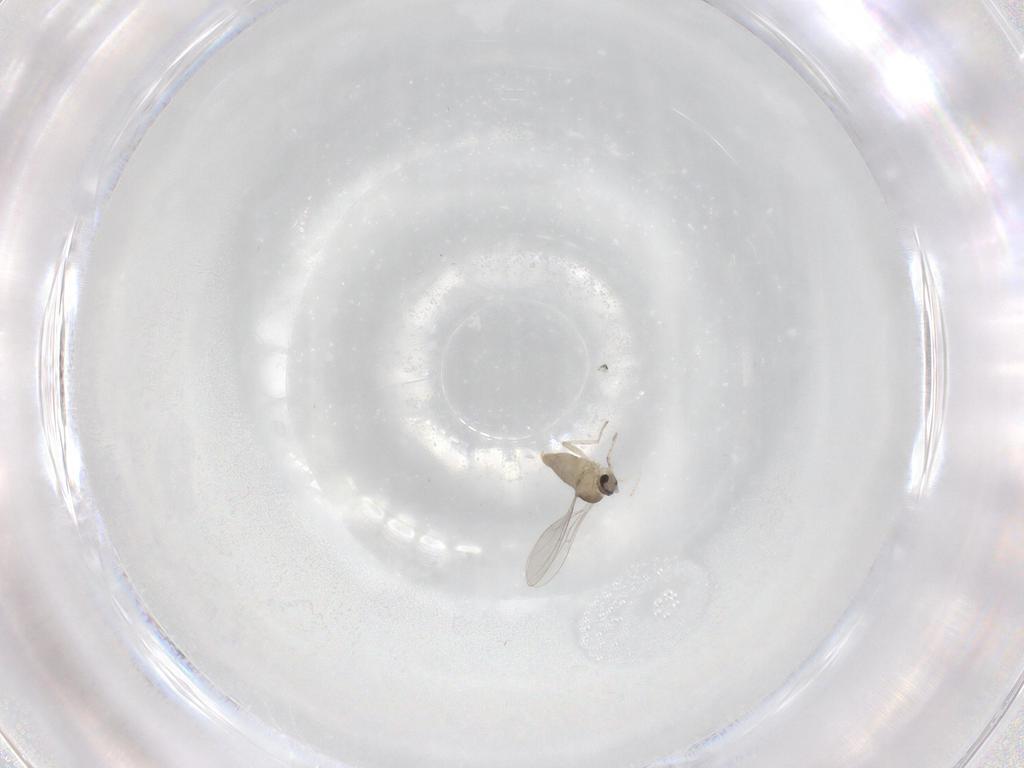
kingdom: Animalia
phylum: Arthropoda
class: Insecta
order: Diptera
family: Cecidomyiidae
